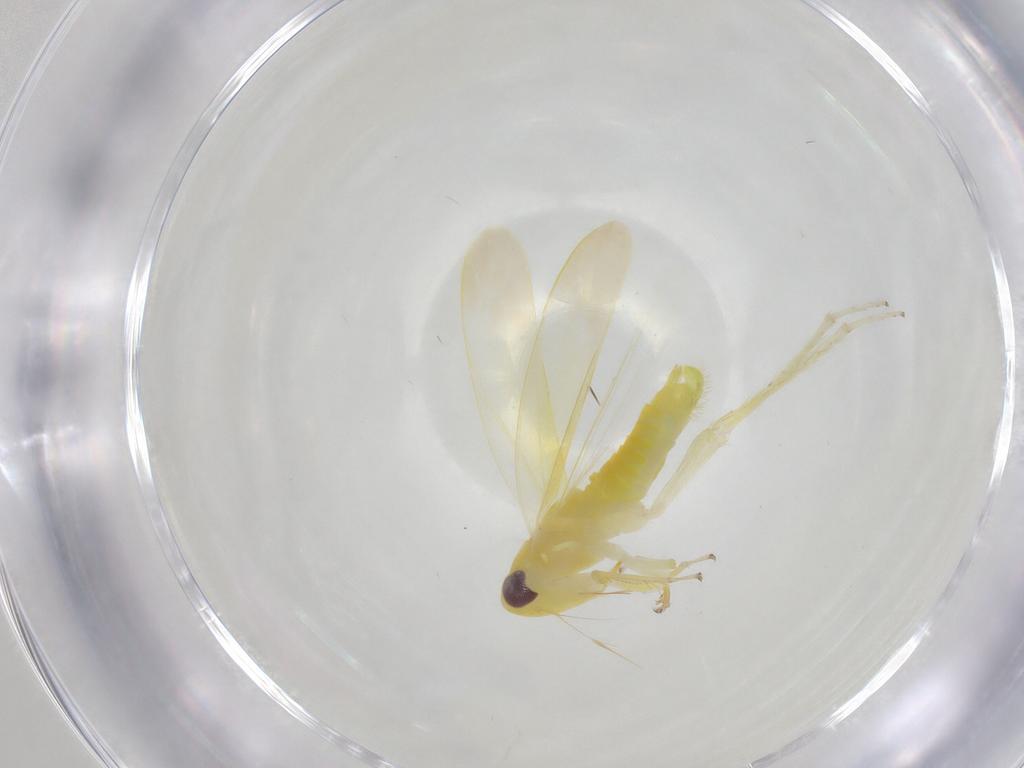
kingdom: Animalia
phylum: Arthropoda
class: Insecta
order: Hemiptera
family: Cicadellidae
